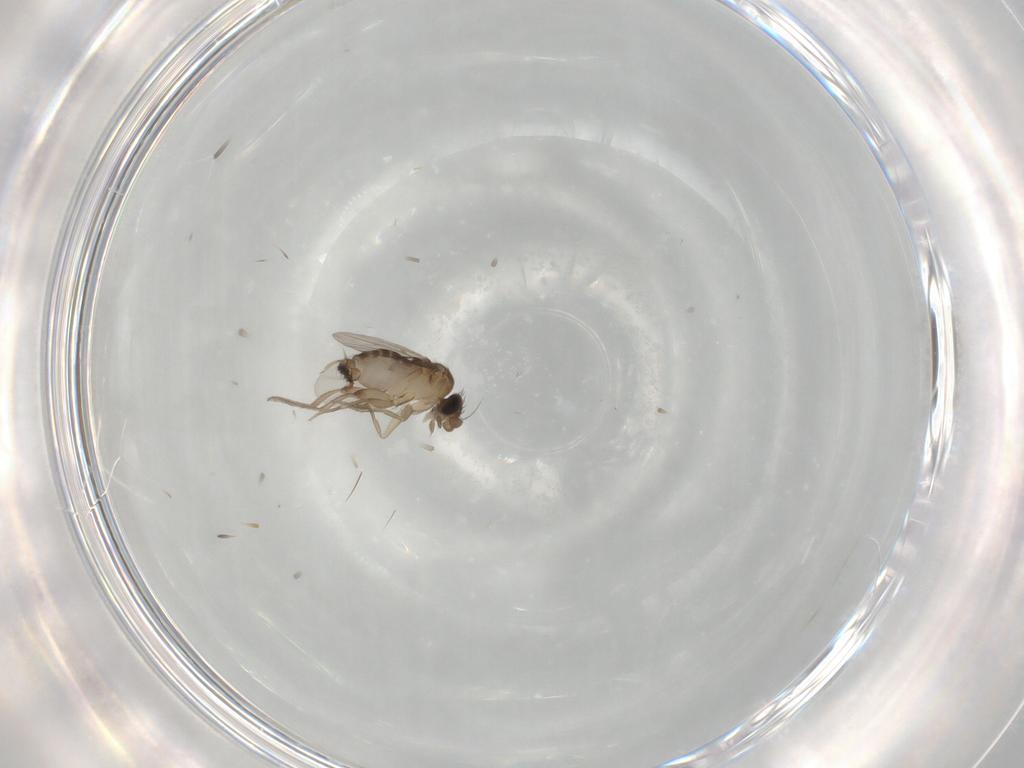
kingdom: Animalia
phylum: Arthropoda
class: Insecta
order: Diptera
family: Phoridae
